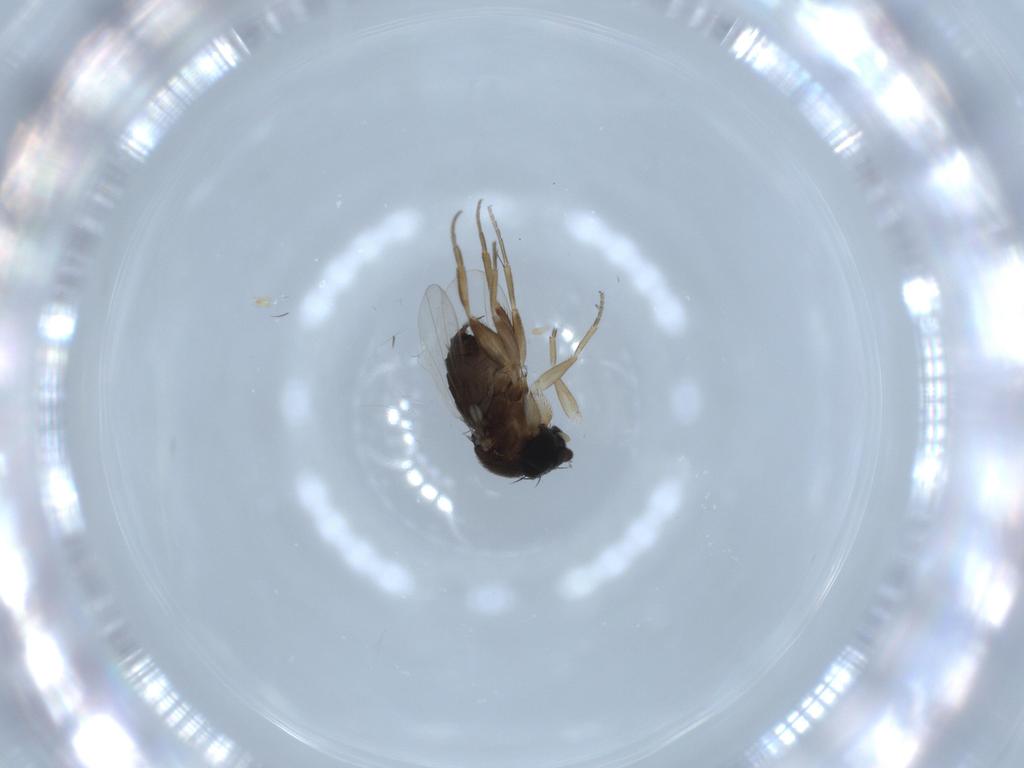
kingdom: Animalia
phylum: Arthropoda
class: Insecta
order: Diptera
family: Phoridae
